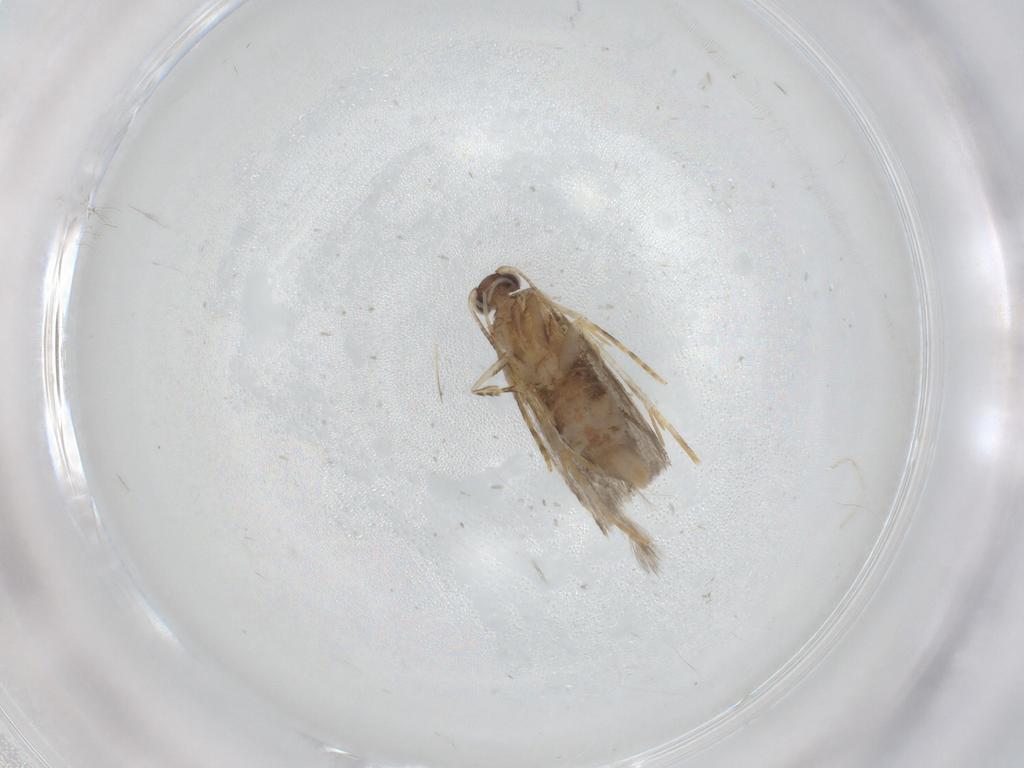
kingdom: Animalia
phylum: Arthropoda
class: Insecta
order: Lepidoptera
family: Tineidae
